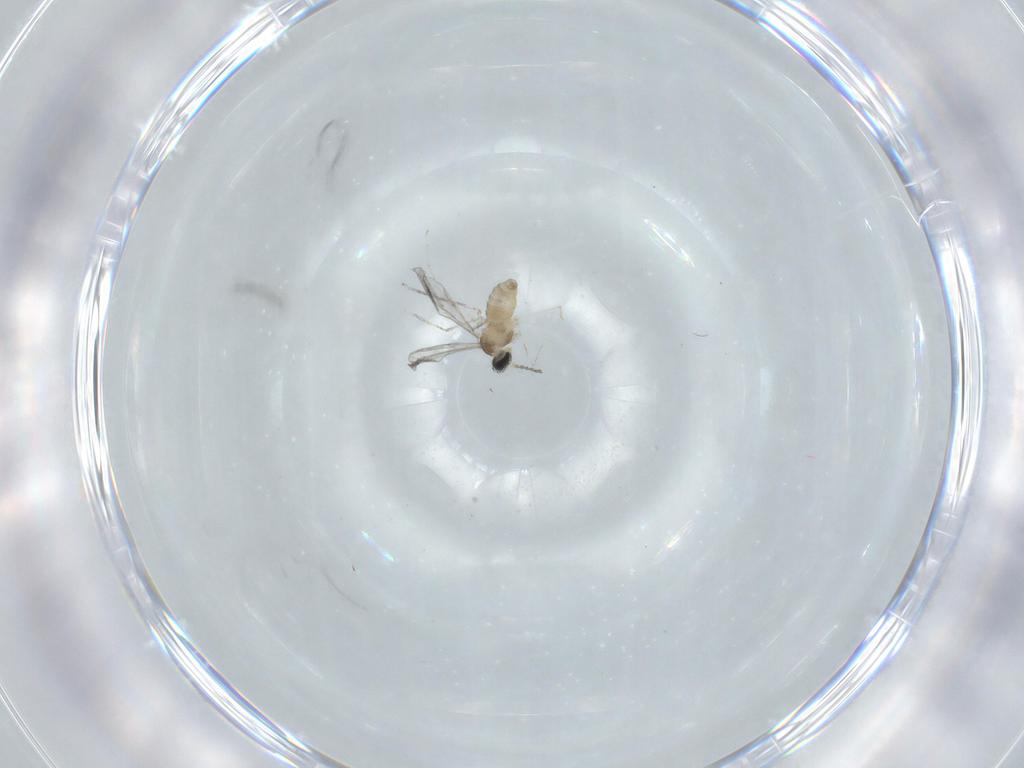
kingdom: Animalia
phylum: Arthropoda
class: Insecta
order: Diptera
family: Cecidomyiidae
